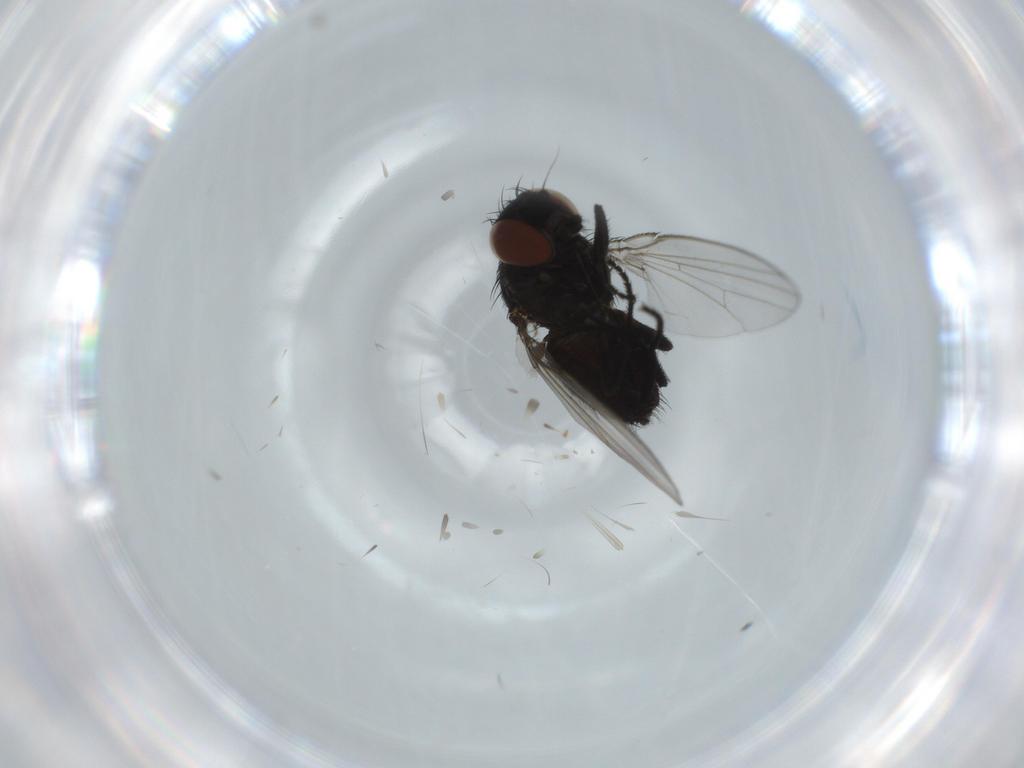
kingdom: Animalia
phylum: Arthropoda
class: Insecta
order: Diptera
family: Milichiidae
